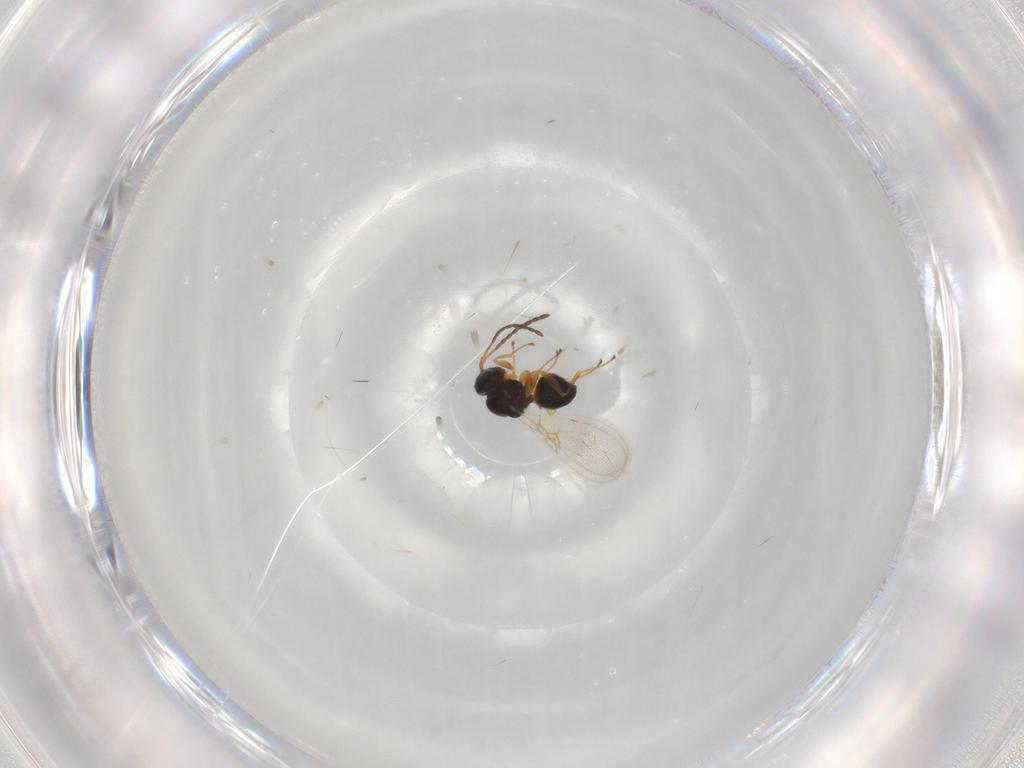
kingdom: Animalia
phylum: Arthropoda
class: Insecta
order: Hymenoptera
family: Figitidae
